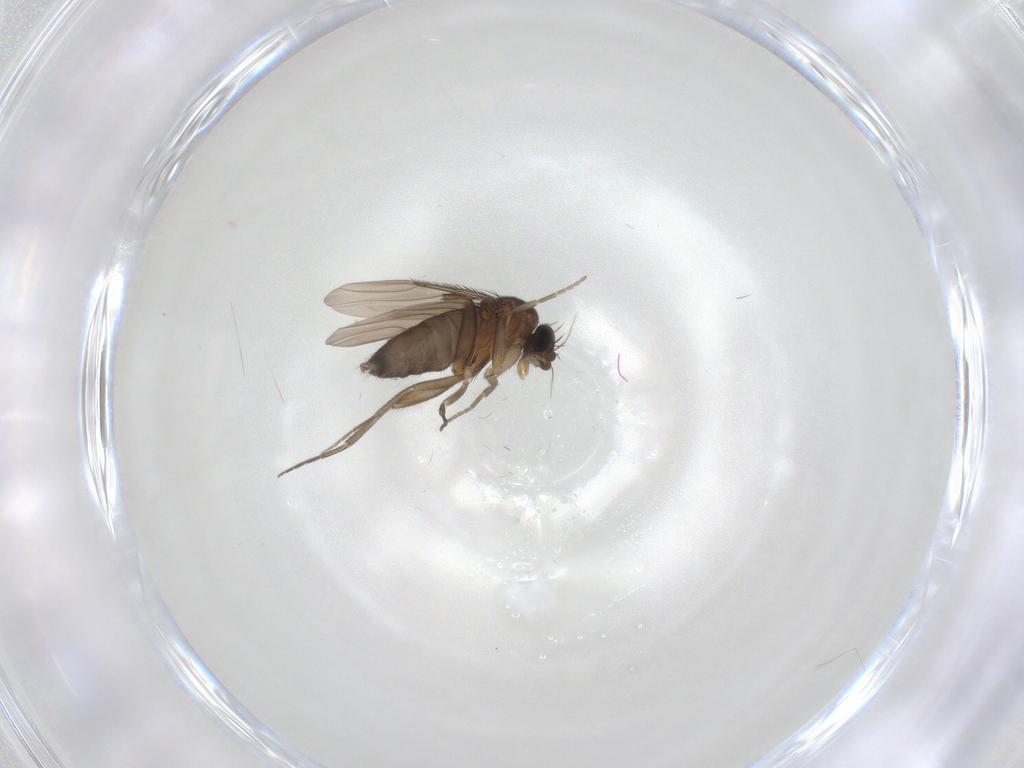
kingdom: Animalia
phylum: Arthropoda
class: Insecta
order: Diptera
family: Phoridae
